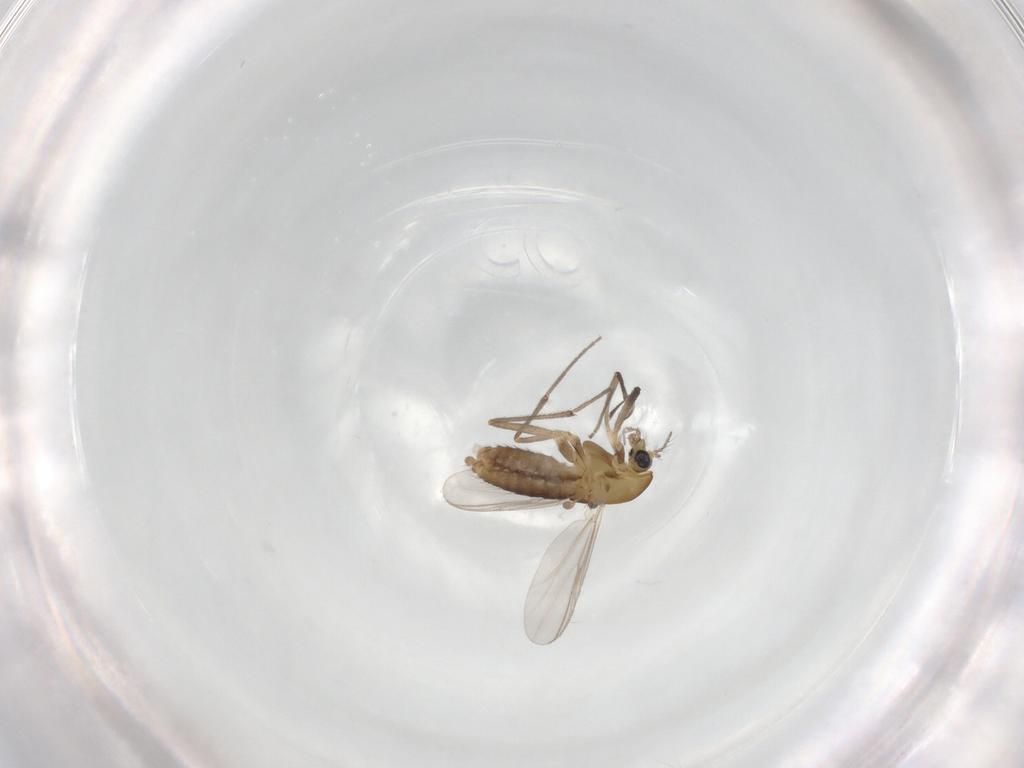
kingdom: Animalia
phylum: Arthropoda
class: Insecta
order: Diptera
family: Chironomidae
